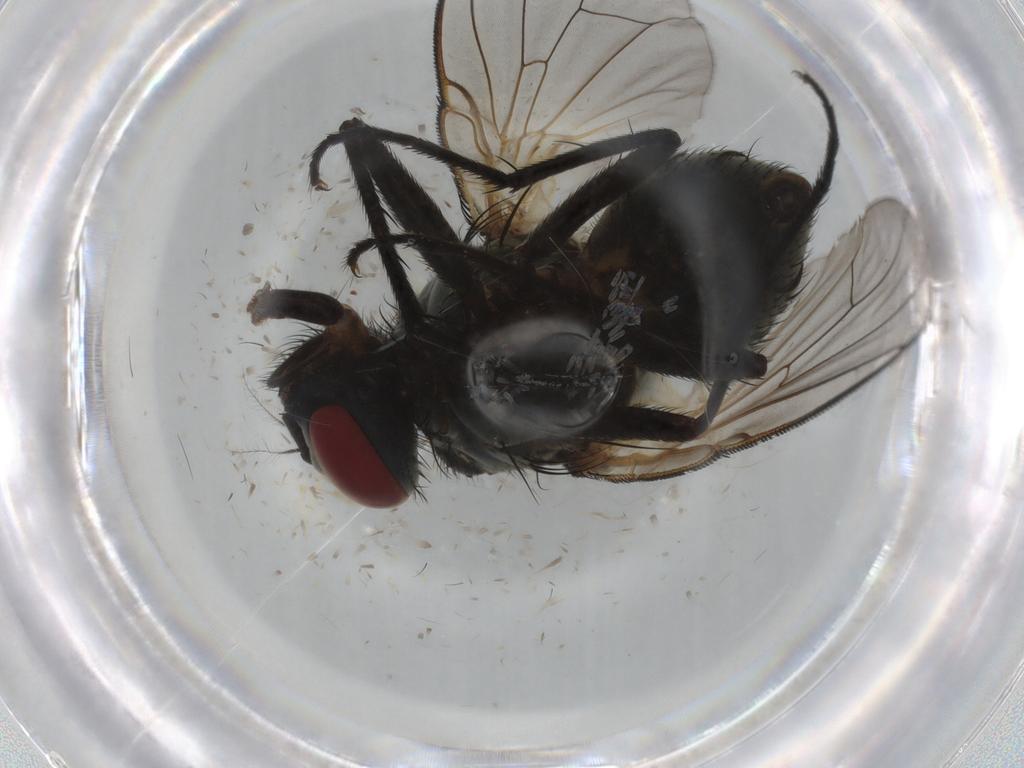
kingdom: Animalia
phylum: Arthropoda
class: Insecta
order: Diptera
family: Muscidae
